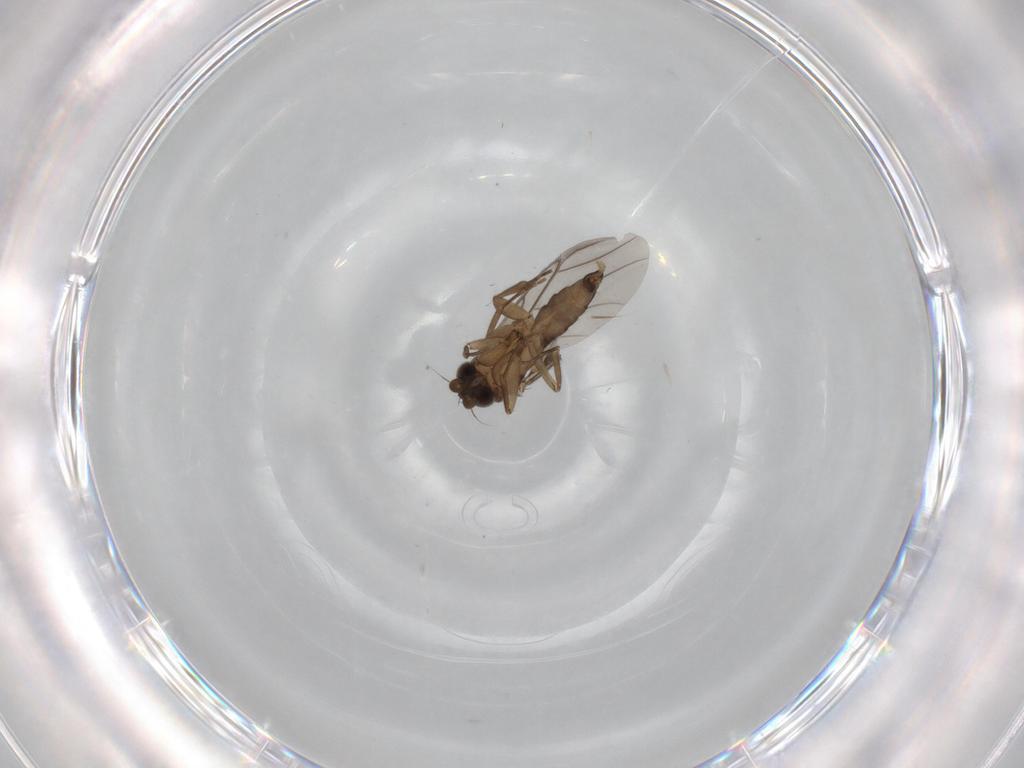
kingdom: Animalia
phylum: Arthropoda
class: Insecta
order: Diptera
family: Phoridae
